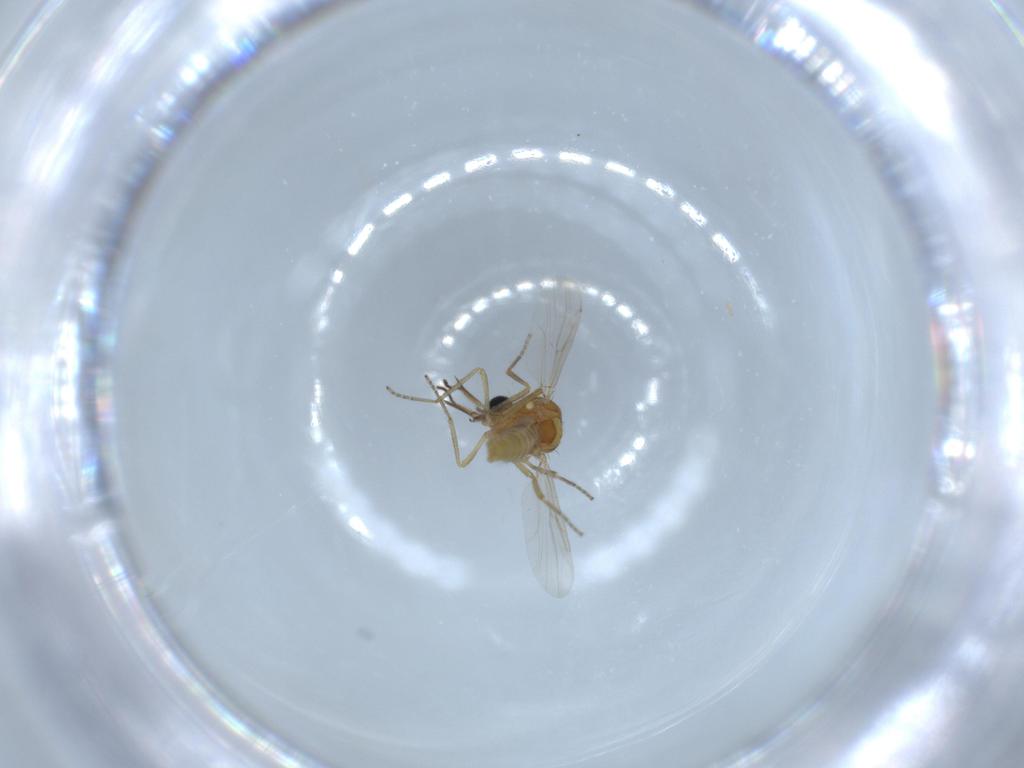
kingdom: Animalia
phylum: Arthropoda
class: Insecta
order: Diptera
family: Ceratopogonidae
